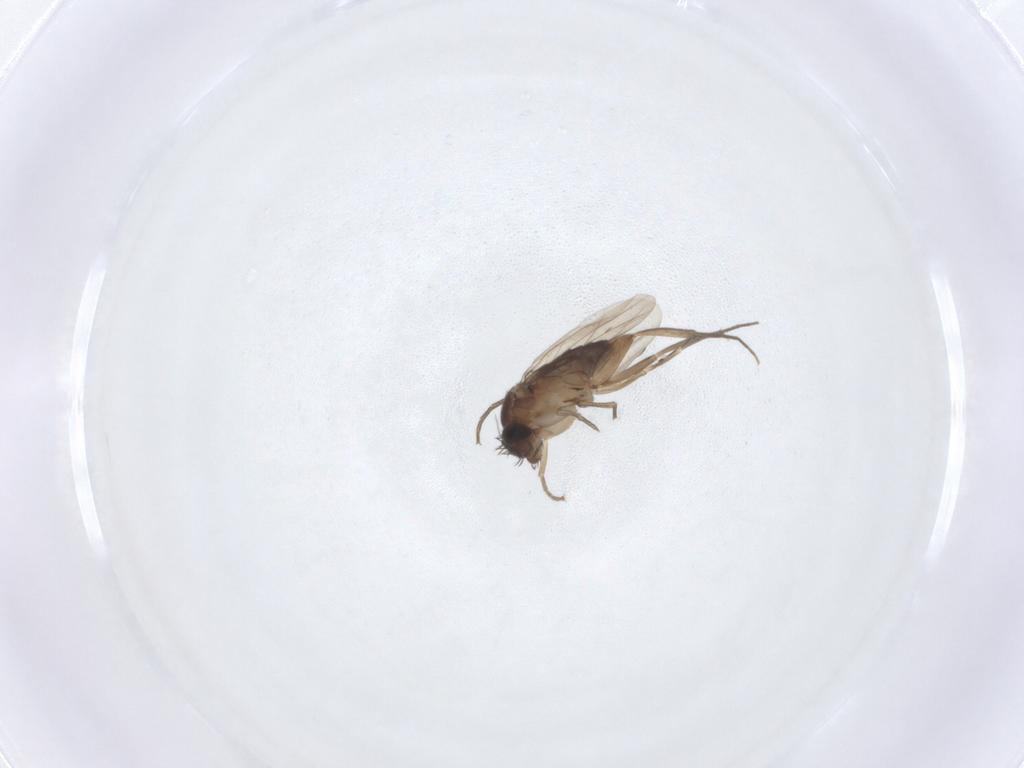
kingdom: Animalia
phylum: Arthropoda
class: Insecta
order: Diptera
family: Phoridae
